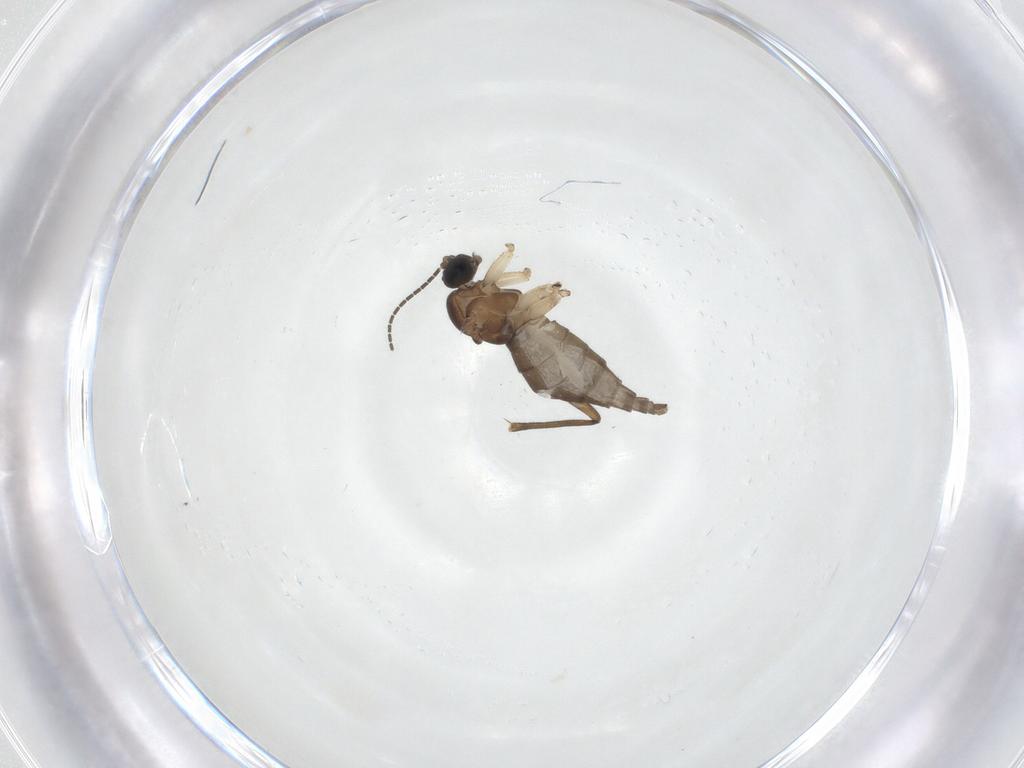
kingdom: Animalia
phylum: Arthropoda
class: Insecta
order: Diptera
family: Sciaridae
